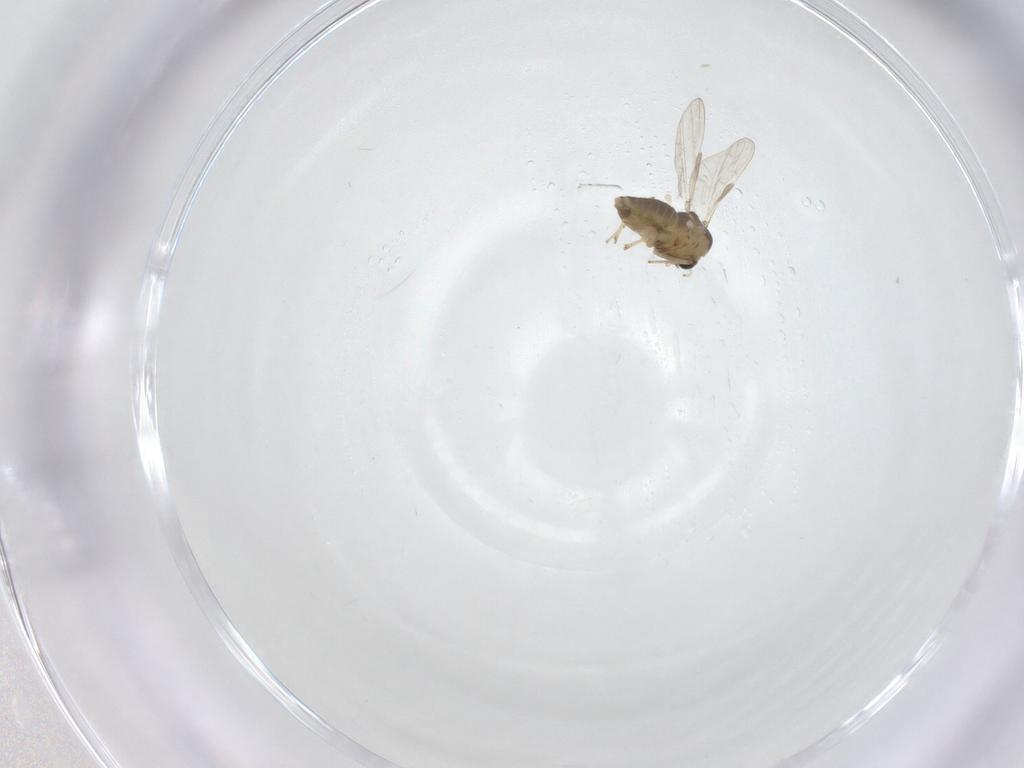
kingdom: Animalia
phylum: Arthropoda
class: Insecta
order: Diptera
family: Chironomidae
